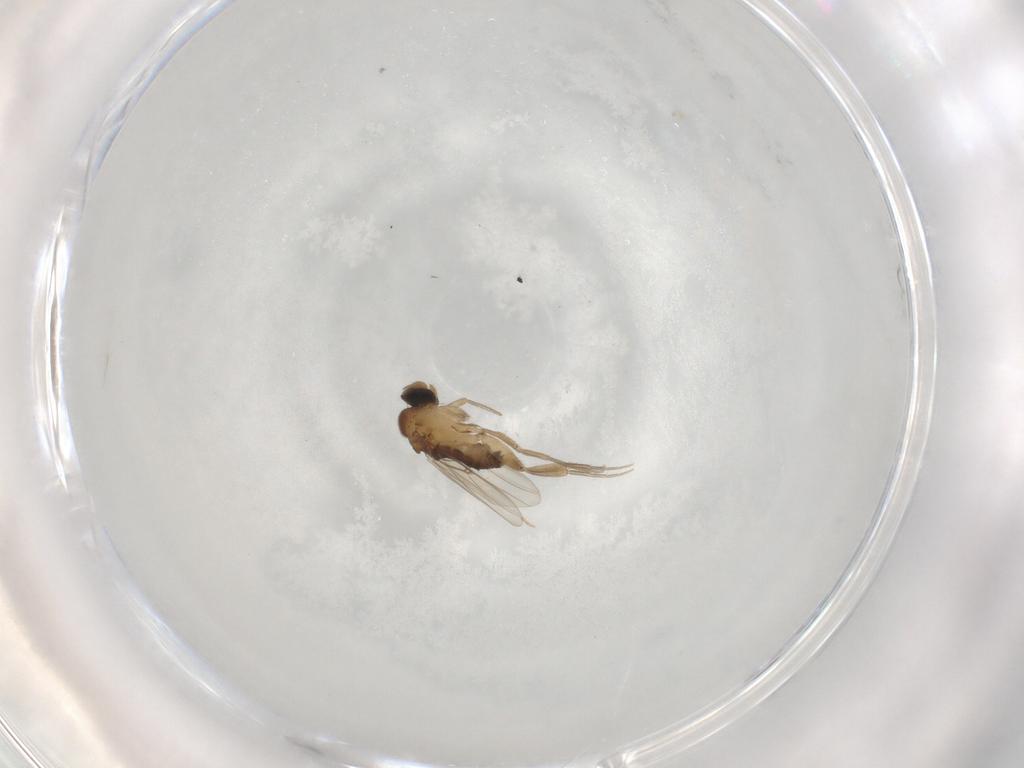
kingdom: Animalia
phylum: Arthropoda
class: Insecta
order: Diptera
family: Phoridae
